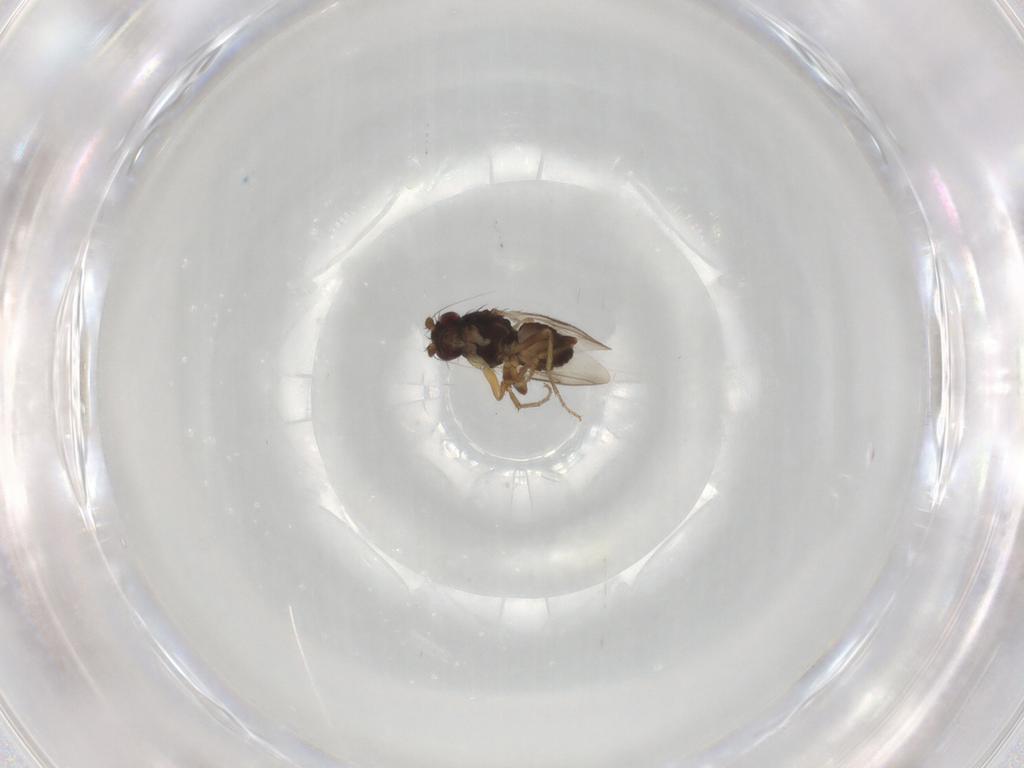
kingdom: Animalia
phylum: Arthropoda
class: Insecta
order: Diptera
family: Sphaeroceridae
